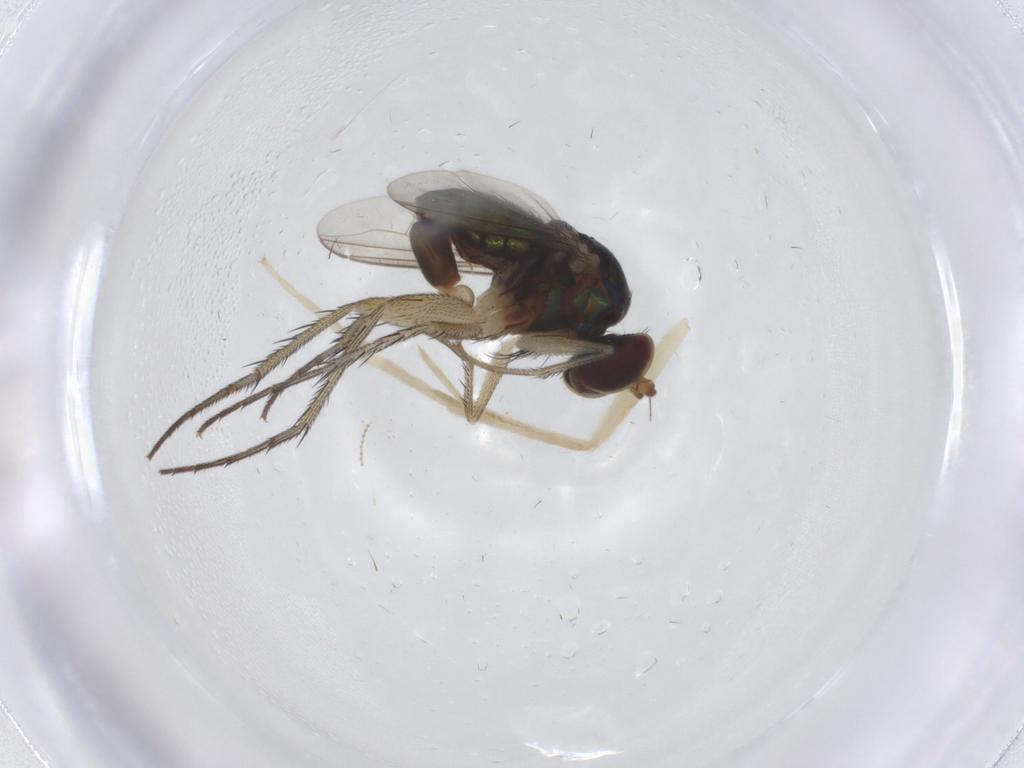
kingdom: Animalia
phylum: Arthropoda
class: Insecta
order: Diptera
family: Dolichopodidae
